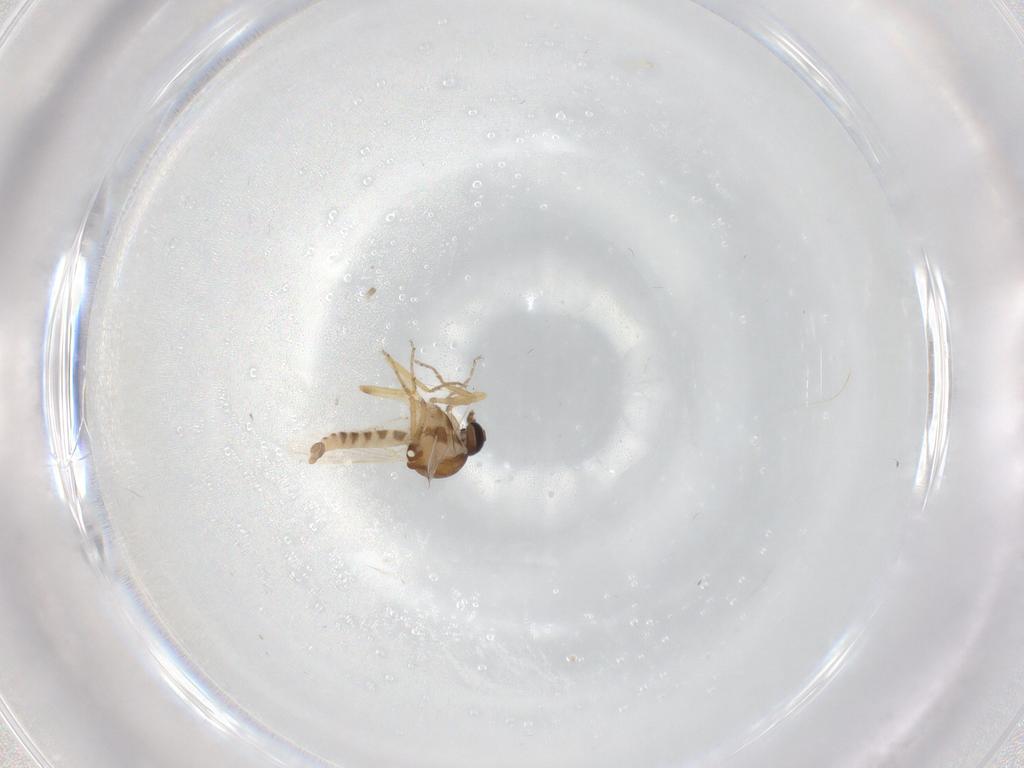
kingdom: Animalia
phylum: Arthropoda
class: Insecta
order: Diptera
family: Ceratopogonidae
